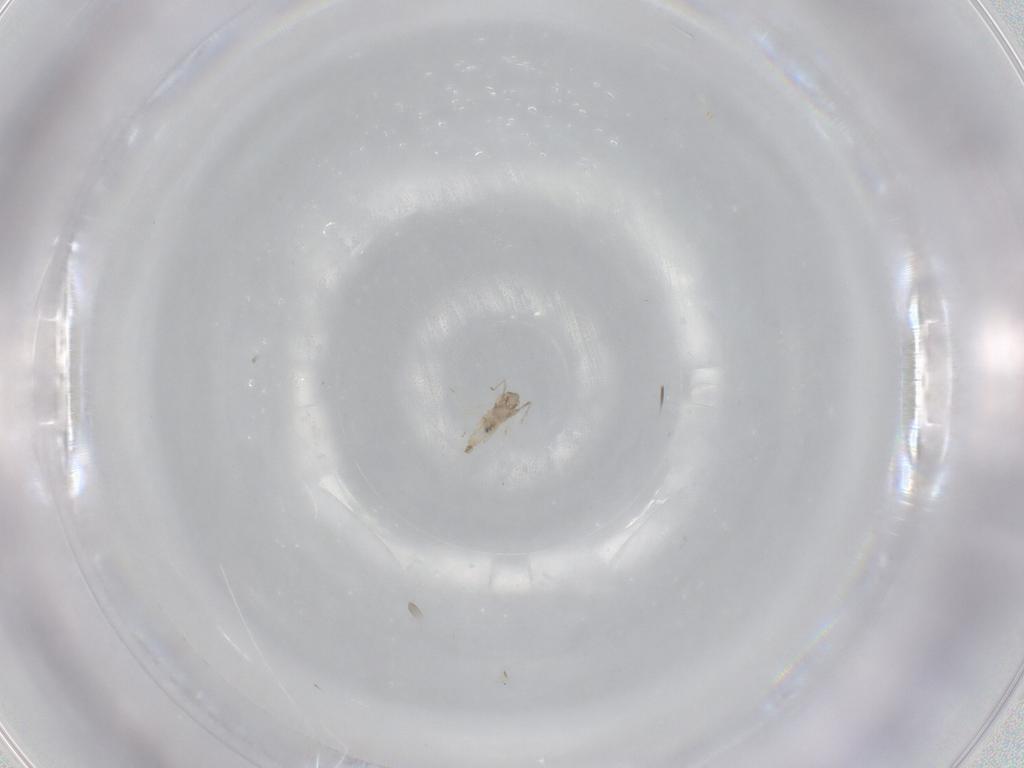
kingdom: Animalia
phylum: Arthropoda
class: Insecta
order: Diptera
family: Cecidomyiidae
